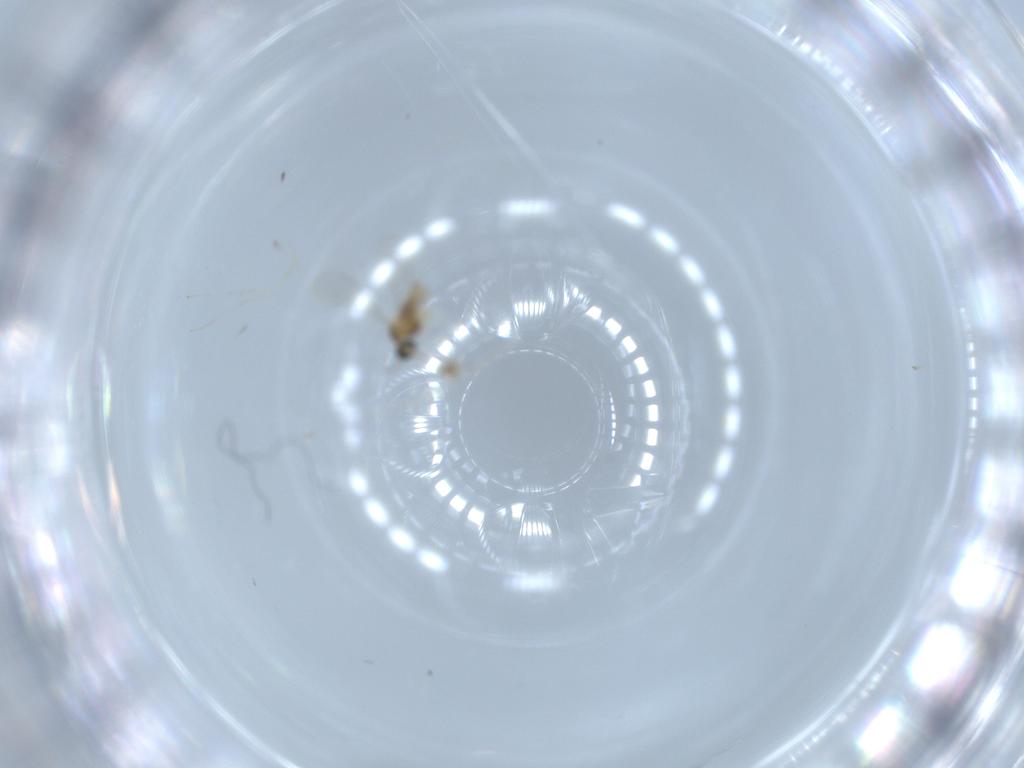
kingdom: Animalia
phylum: Arthropoda
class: Insecta
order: Diptera
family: Sciaridae
